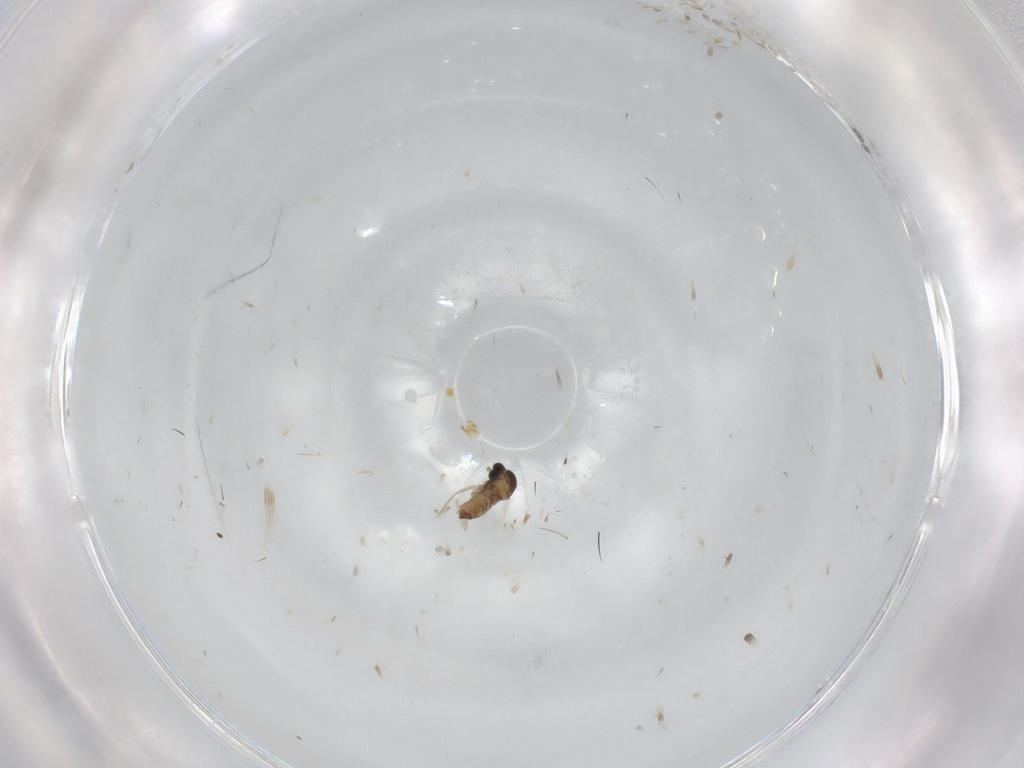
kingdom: Animalia
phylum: Arthropoda
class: Insecta
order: Diptera
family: Cecidomyiidae
